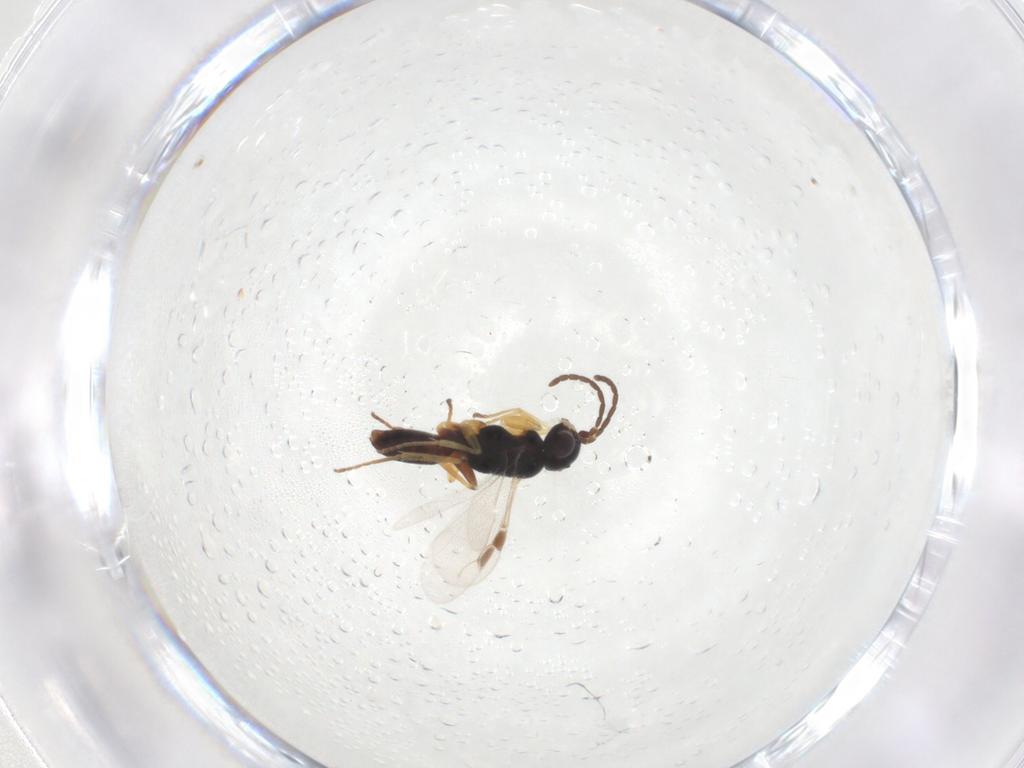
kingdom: Animalia
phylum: Arthropoda
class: Insecta
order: Hymenoptera
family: Dryinidae
